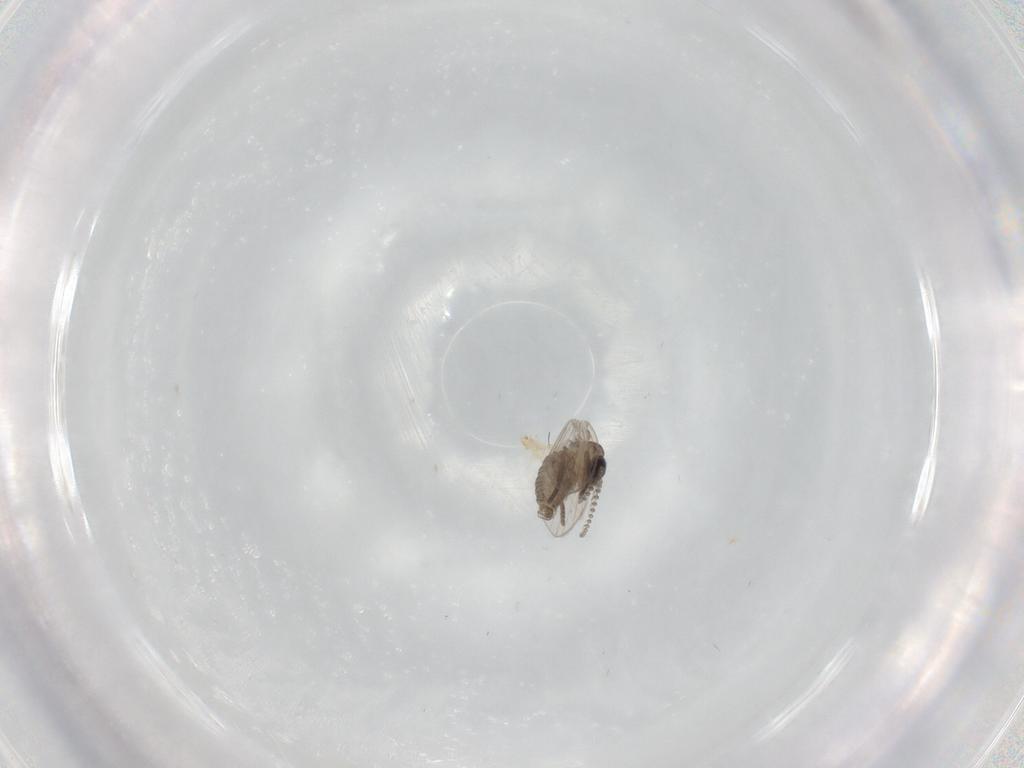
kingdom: Animalia
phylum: Arthropoda
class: Insecta
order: Diptera
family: Psychodidae
